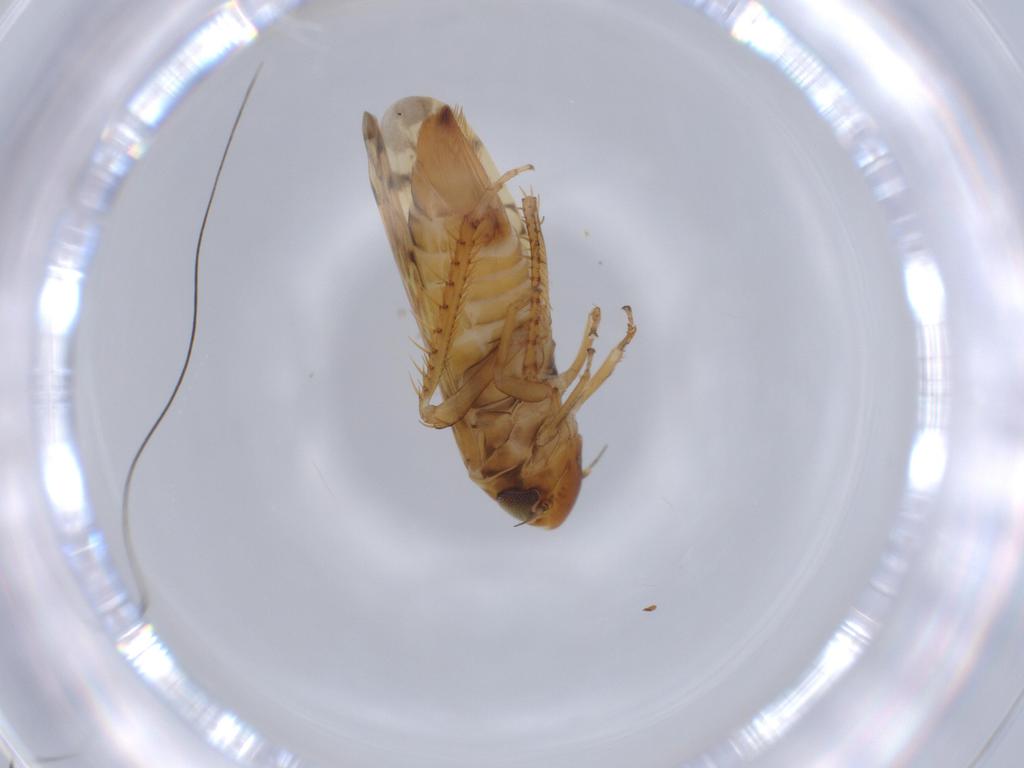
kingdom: Animalia
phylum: Arthropoda
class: Insecta
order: Hemiptera
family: Cicadellidae
